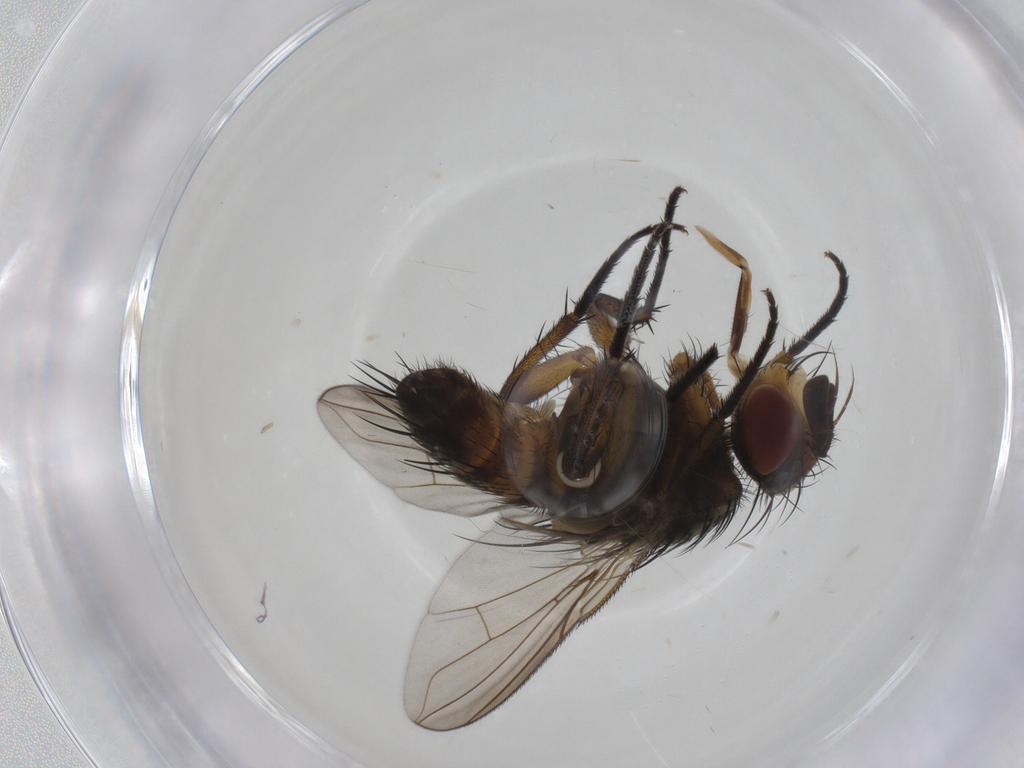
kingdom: Animalia
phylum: Arthropoda
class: Insecta
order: Diptera
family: Tachinidae
